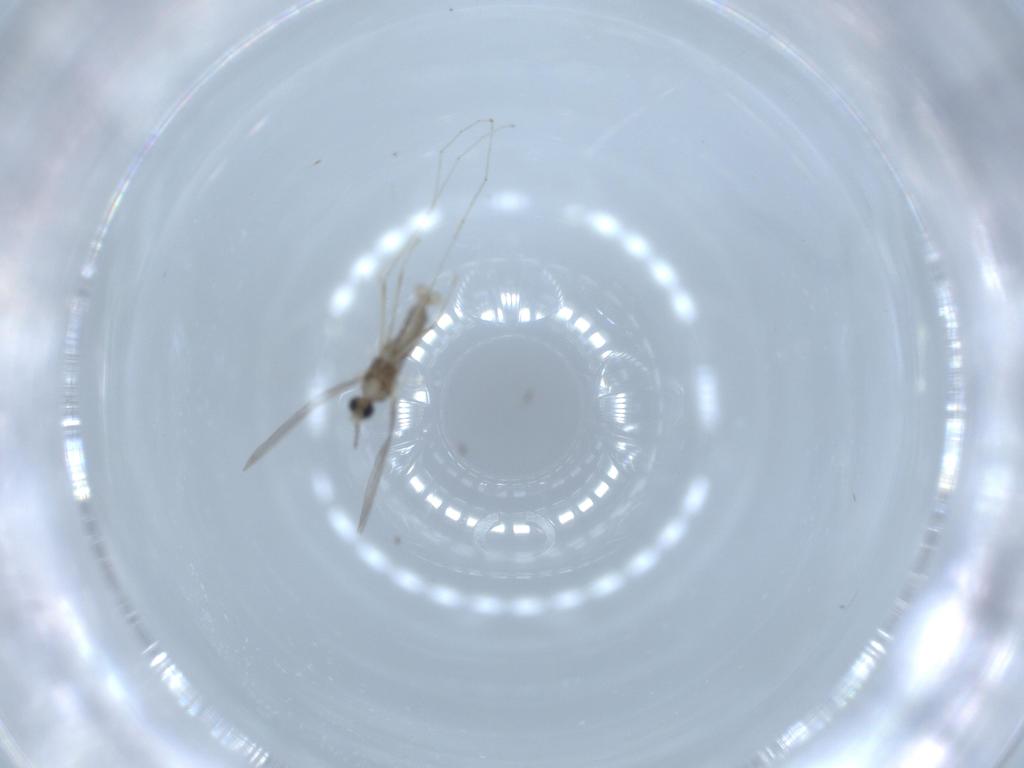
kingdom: Animalia
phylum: Arthropoda
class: Insecta
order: Diptera
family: Cecidomyiidae
